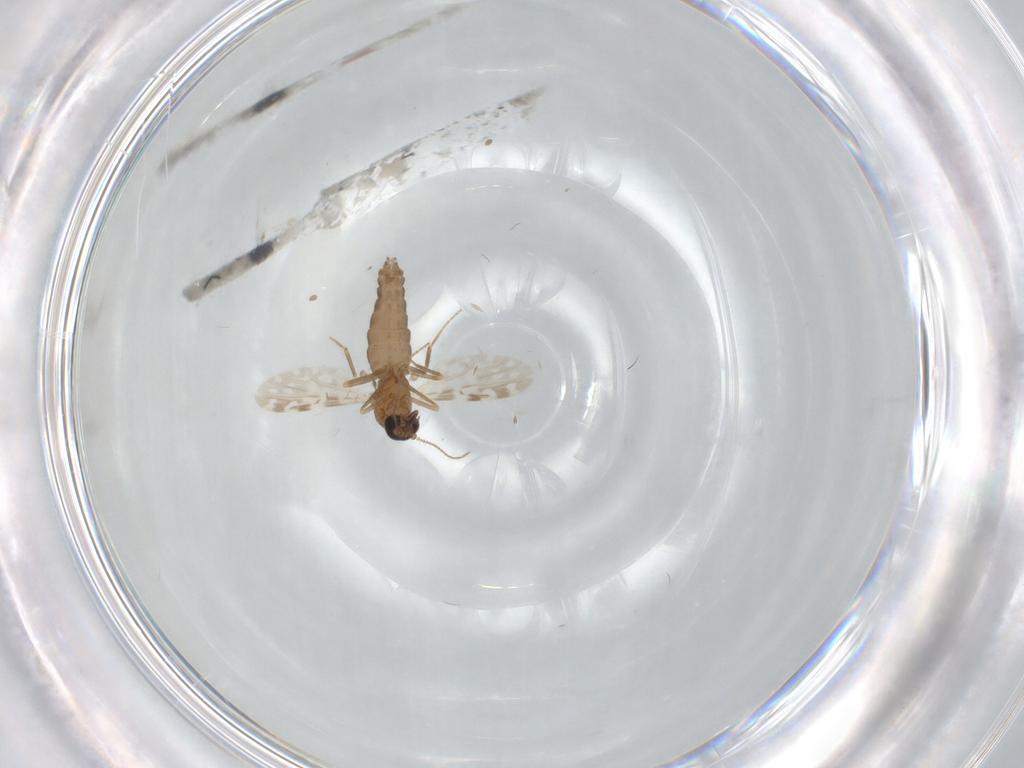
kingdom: Animalia
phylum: Arthropoda
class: Insecta
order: Diptera
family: Ceratopogonidae
